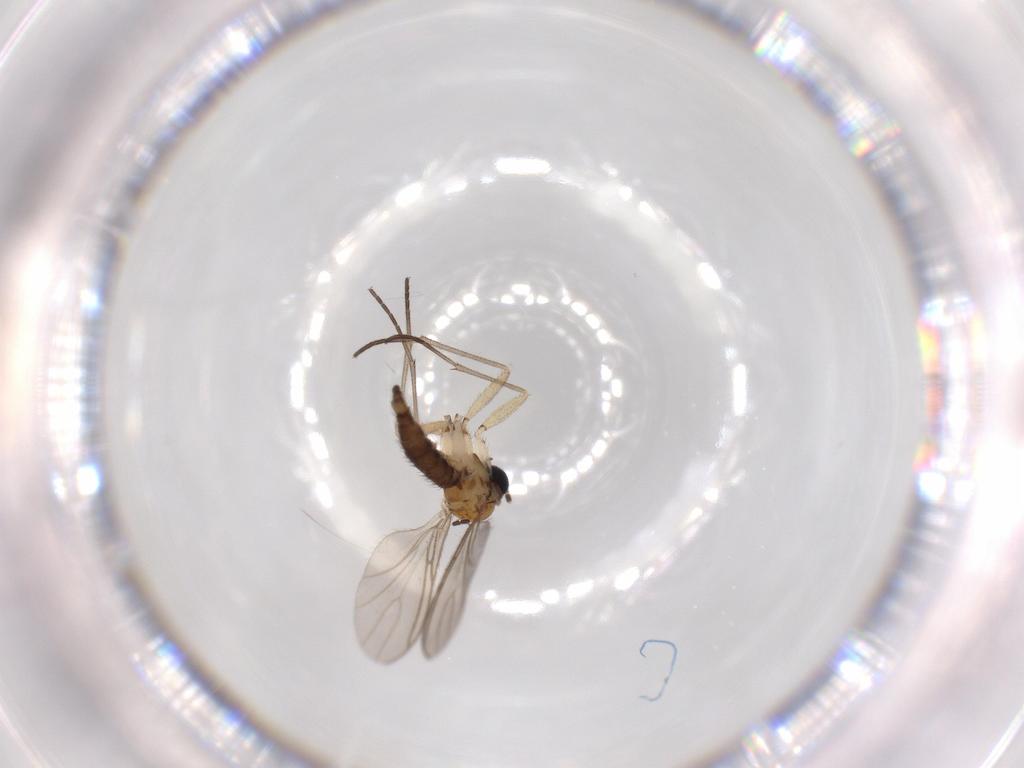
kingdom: Animalia
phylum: Arthropoda
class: Insecta
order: Diptera
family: Sciaridae
